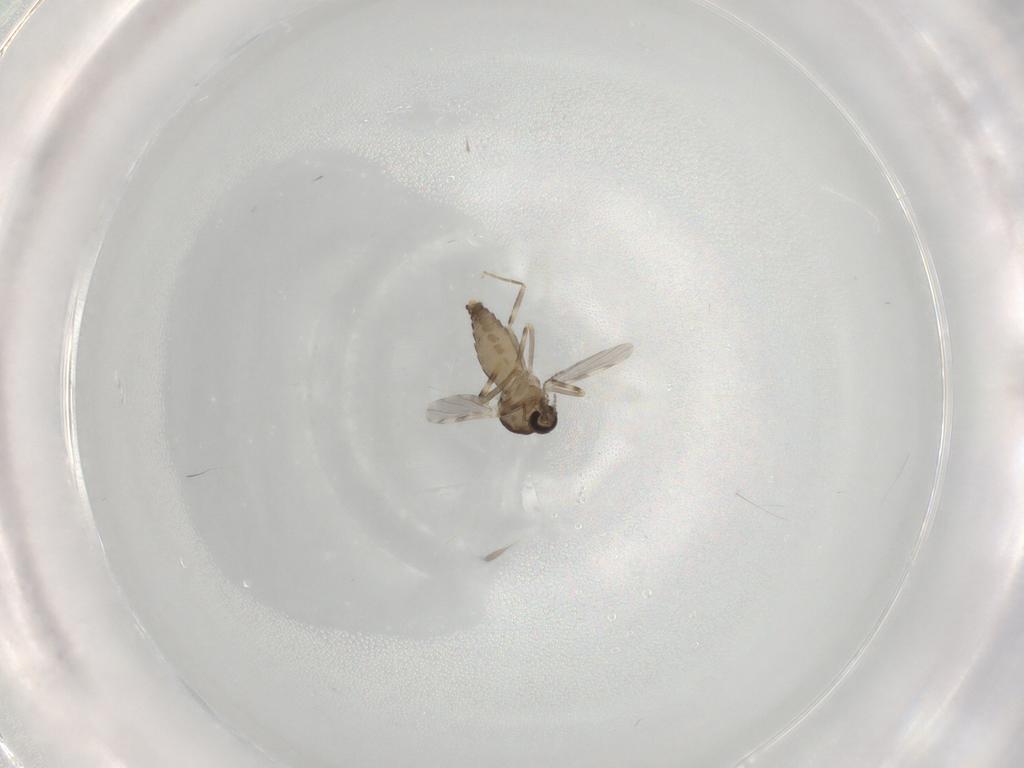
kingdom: Animalia
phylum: Arthropoda
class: Insecta
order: Diptera
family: Ceratopogonidae
